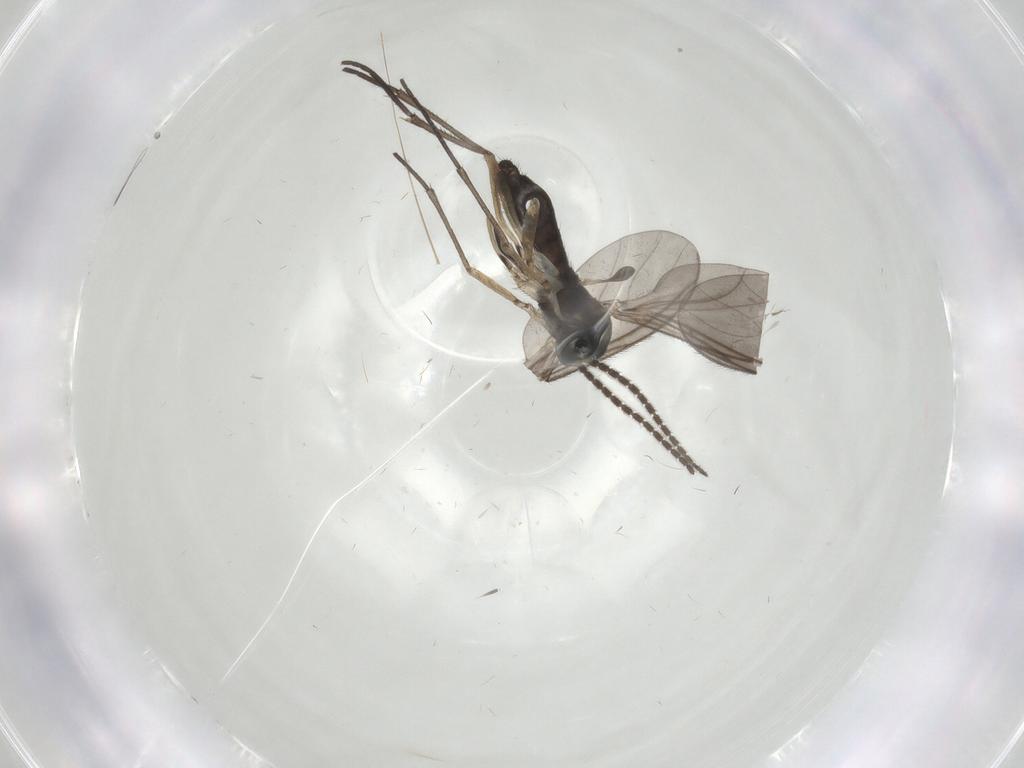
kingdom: Animalia
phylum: Arthropoda
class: Insecta
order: Diptera
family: Sciaridae
